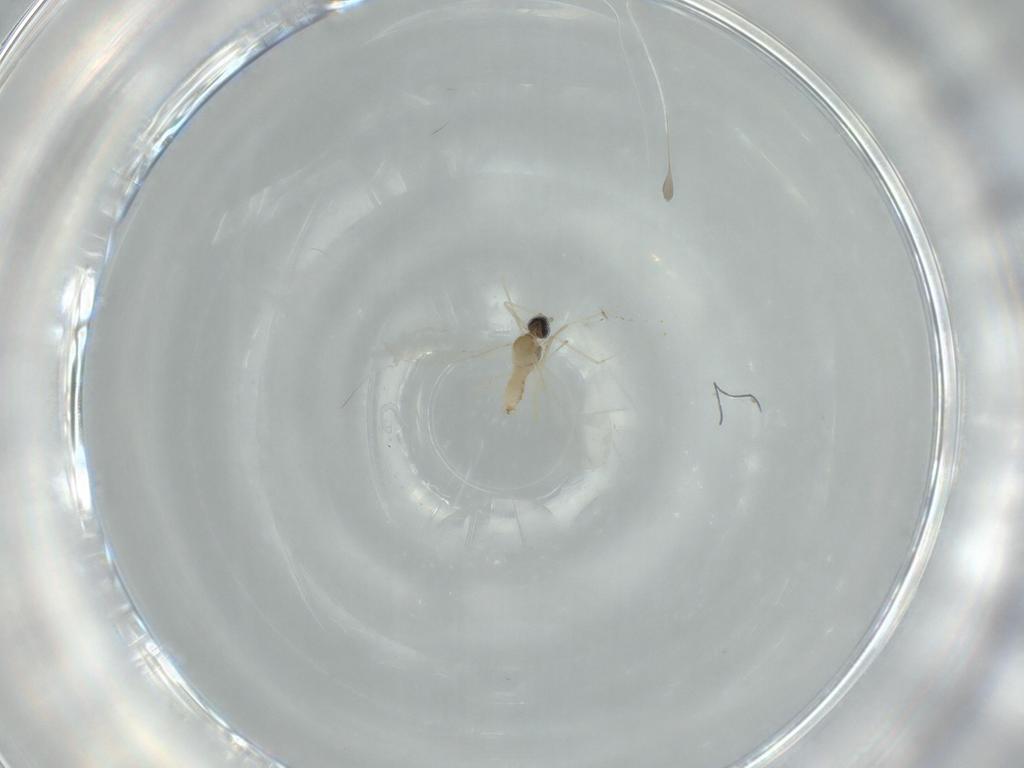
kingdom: Animalia
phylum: Arthropoda
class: Insecta
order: Diptera
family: Cecidomyiidae
